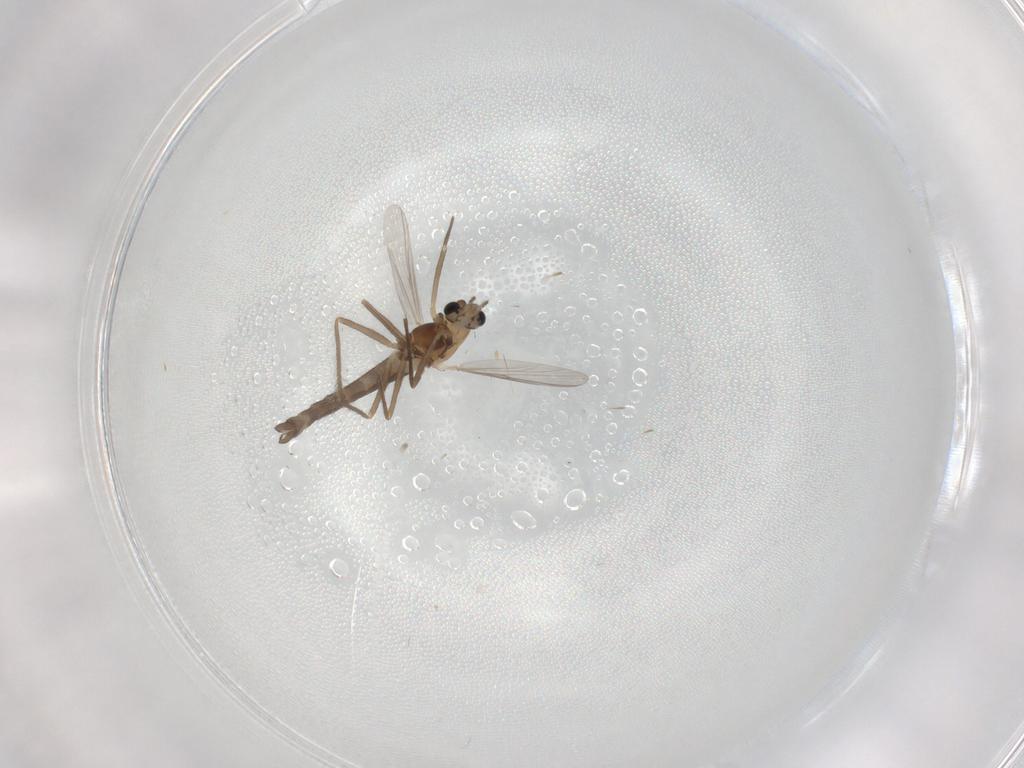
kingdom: Animalia
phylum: Arthropoda
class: Insecta
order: Diptera
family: Chironomidae
